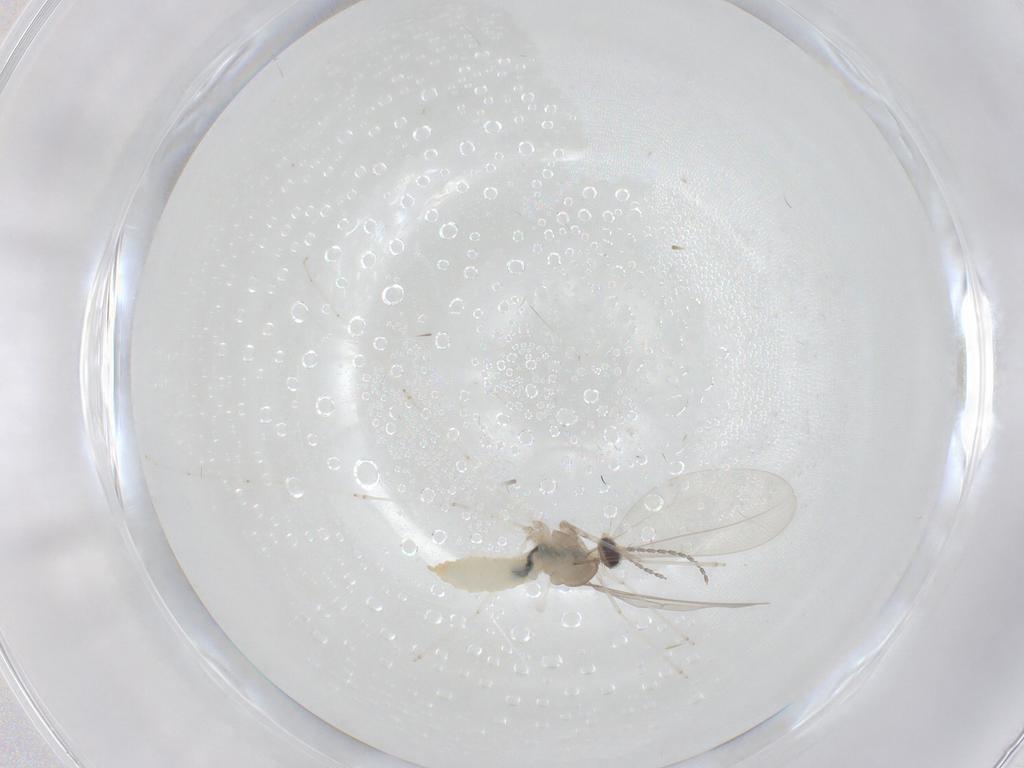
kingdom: Animalia
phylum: Arthropoda
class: Insecta
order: Diptera
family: Cecidomyiidae
